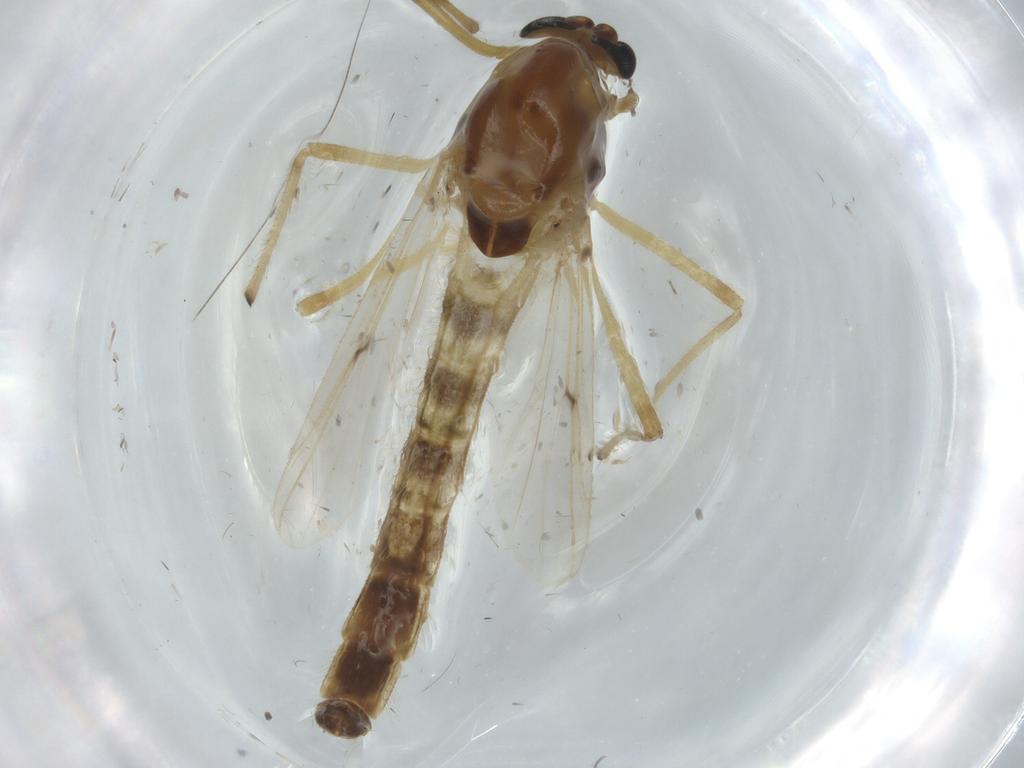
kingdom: Animalia
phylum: Arthropoda
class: Insecta
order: Diptera
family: Chironomidae
